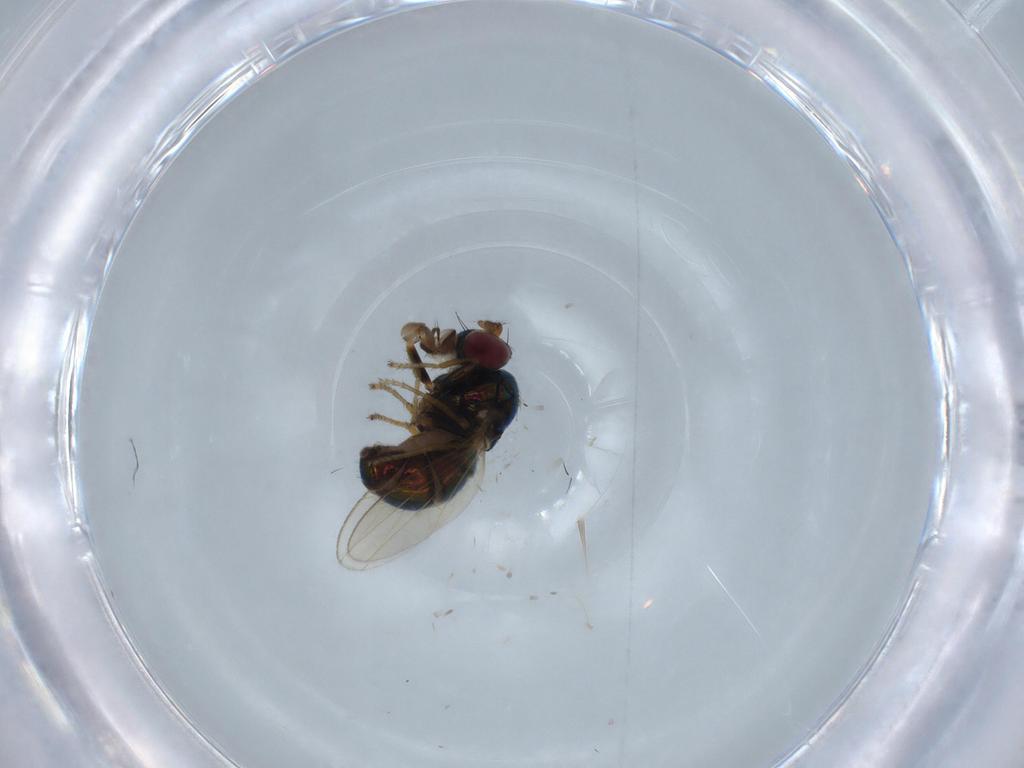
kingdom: Animalia
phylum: Arthropoda
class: Insecta
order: Diptera
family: Ephydridae
